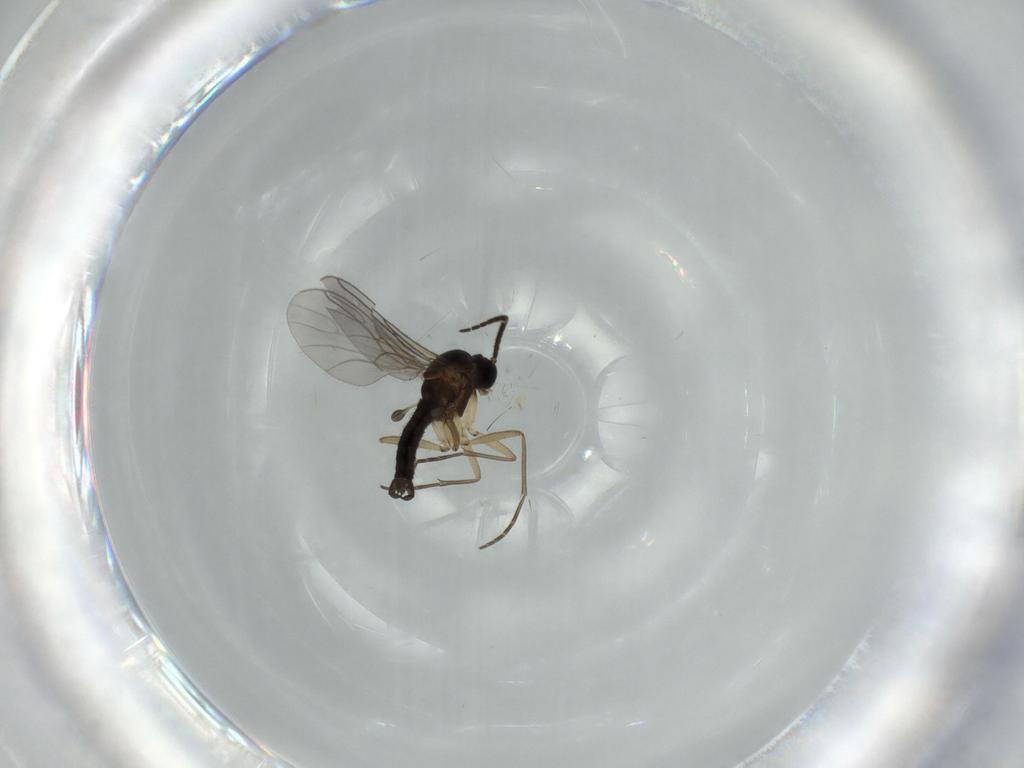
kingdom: Animalia
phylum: Arthropoda
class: Insecta
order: Diptera
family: Sciaridae
